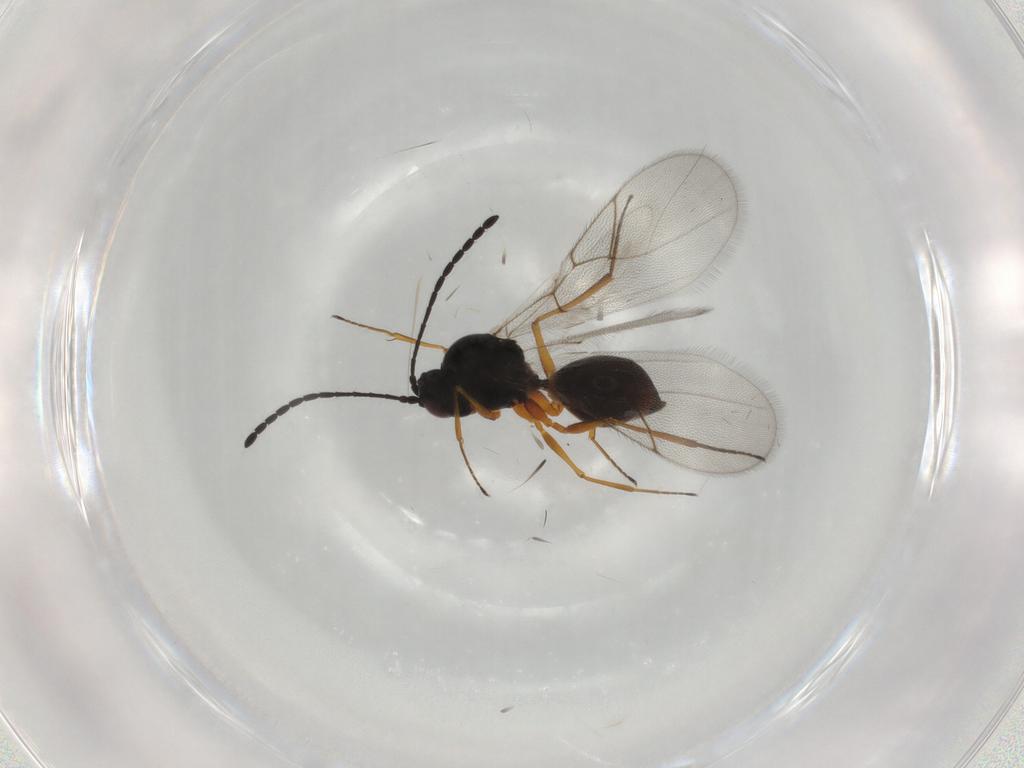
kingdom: Animalia
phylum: Arthropoda
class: Insecta
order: Hymenoptera
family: Figitidae
